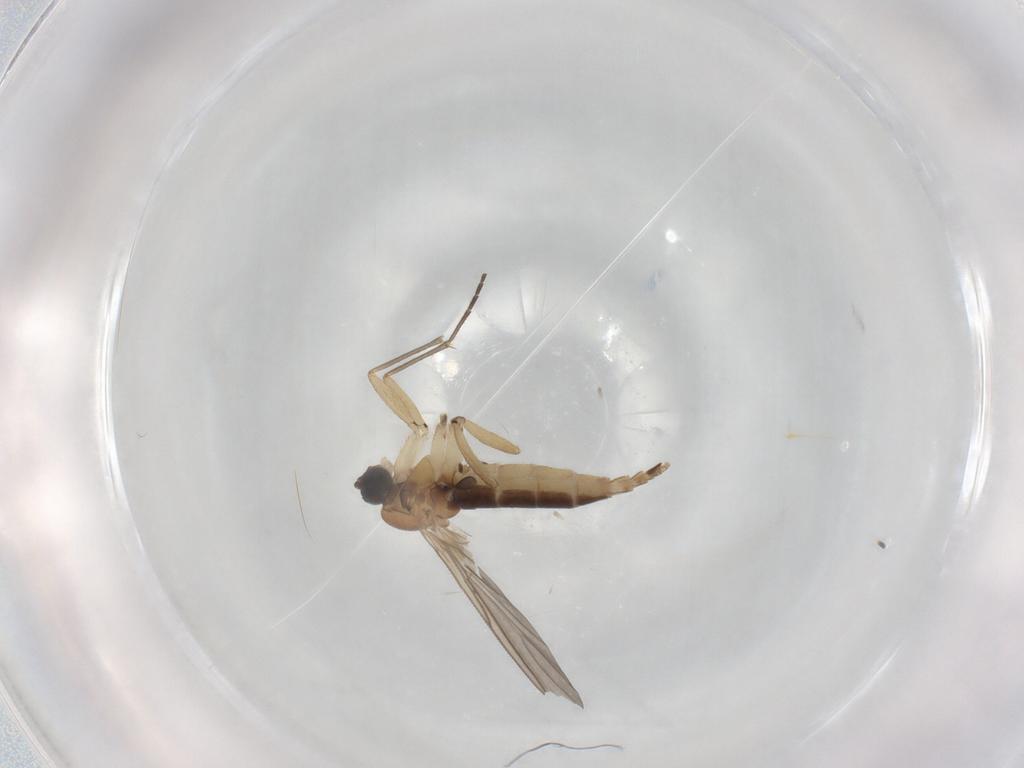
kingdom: Animalia
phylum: Arthropoda
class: Insecta
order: Diptera
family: Sciaridae
